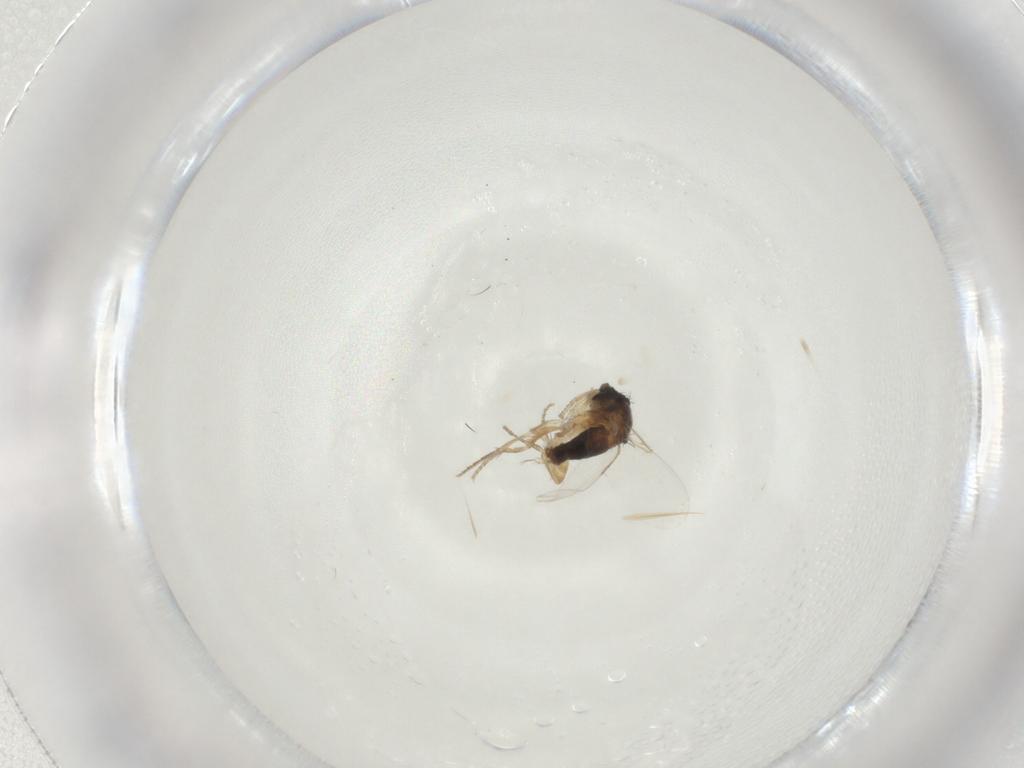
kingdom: Animalia
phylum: Arthropoda
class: Insecta
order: Diptera
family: Phoridae
